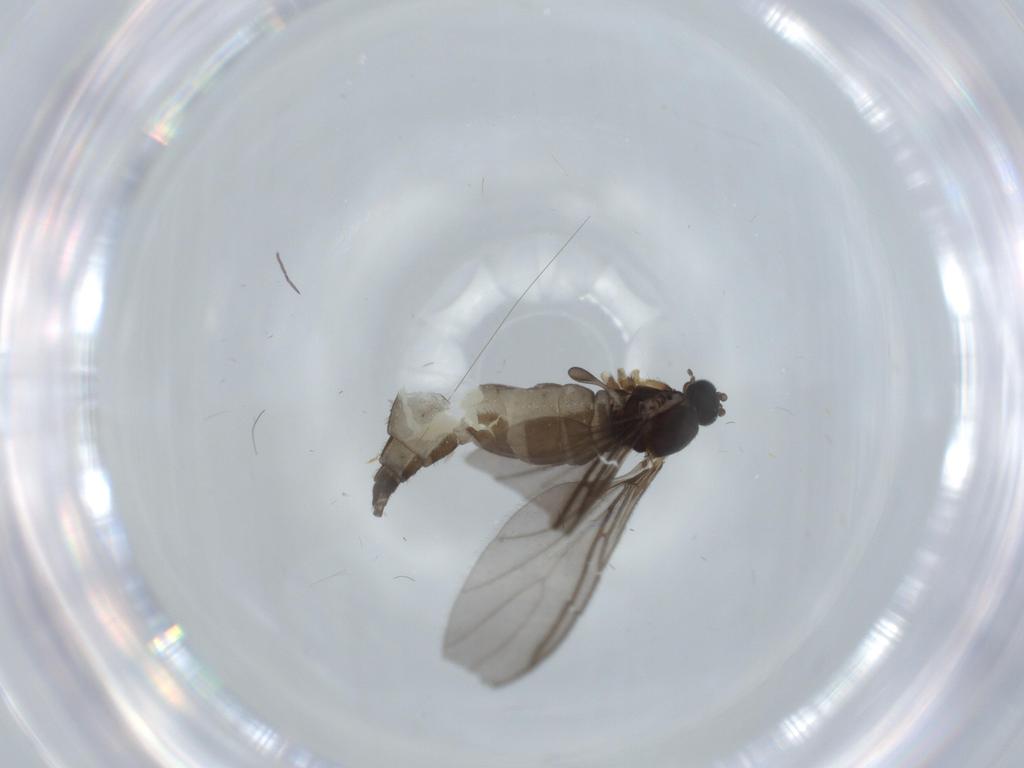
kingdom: Animalia
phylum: Arthropoda
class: Insecta
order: Diptera
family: Sciaridae
